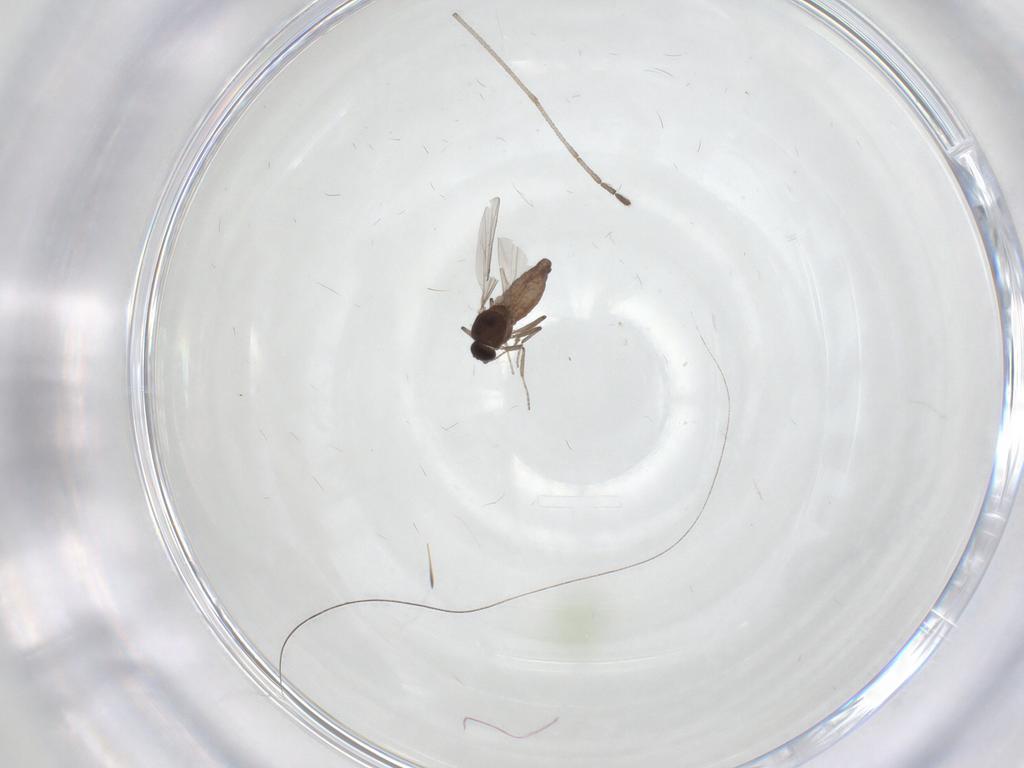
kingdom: Animalia
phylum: Arthropoda
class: Insecta
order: Diptera
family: Ceratopogonidae
